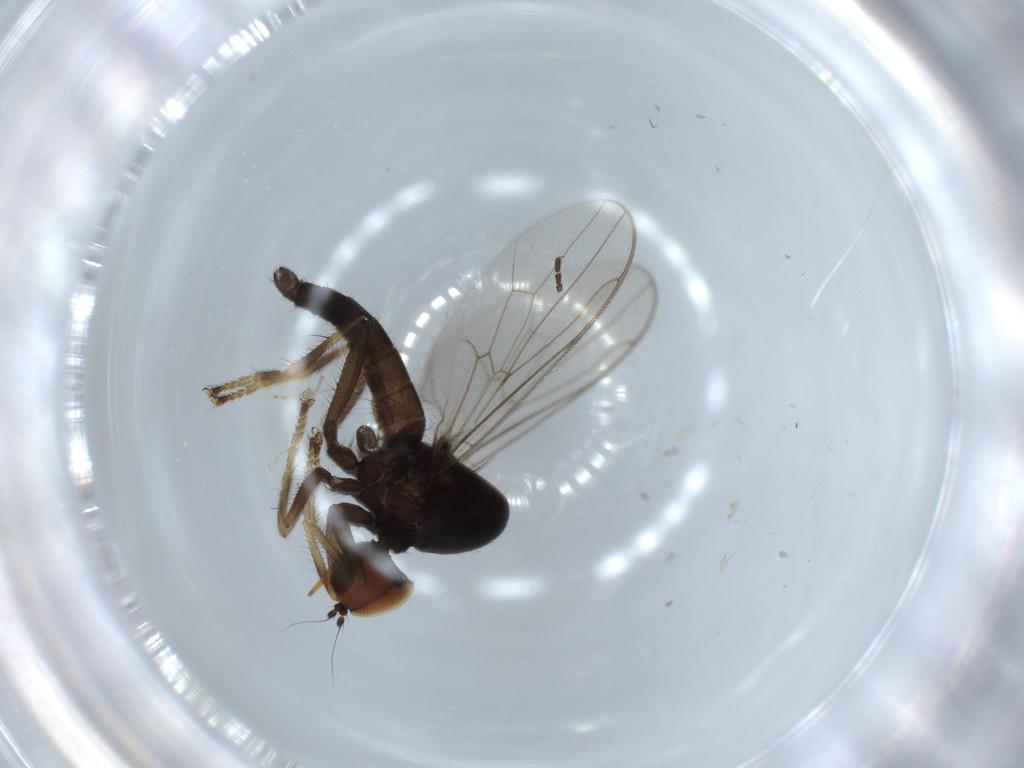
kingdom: Animalia
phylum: Arthropoda
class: Insecta
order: Diptera
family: Hybotidae
